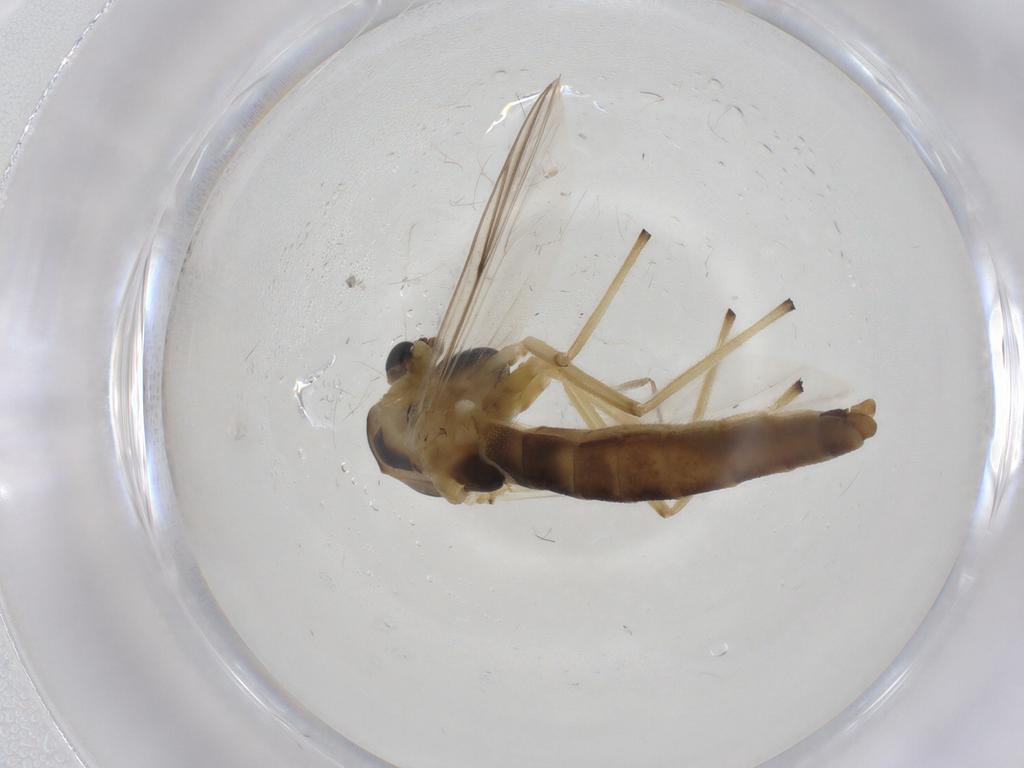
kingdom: Animalia
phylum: Arthropoda
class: Insecta
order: Diptera
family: Chironomidae
